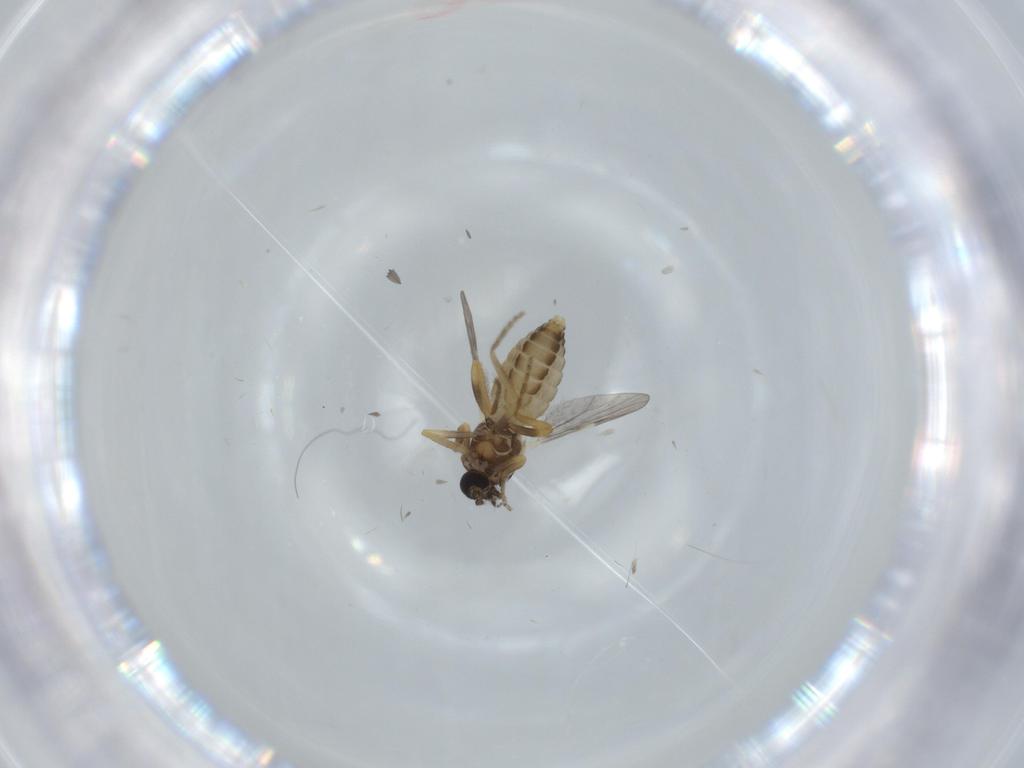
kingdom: Animalia
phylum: Arthropoda
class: Insecta
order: Diptera
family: Ceratopogonidae
